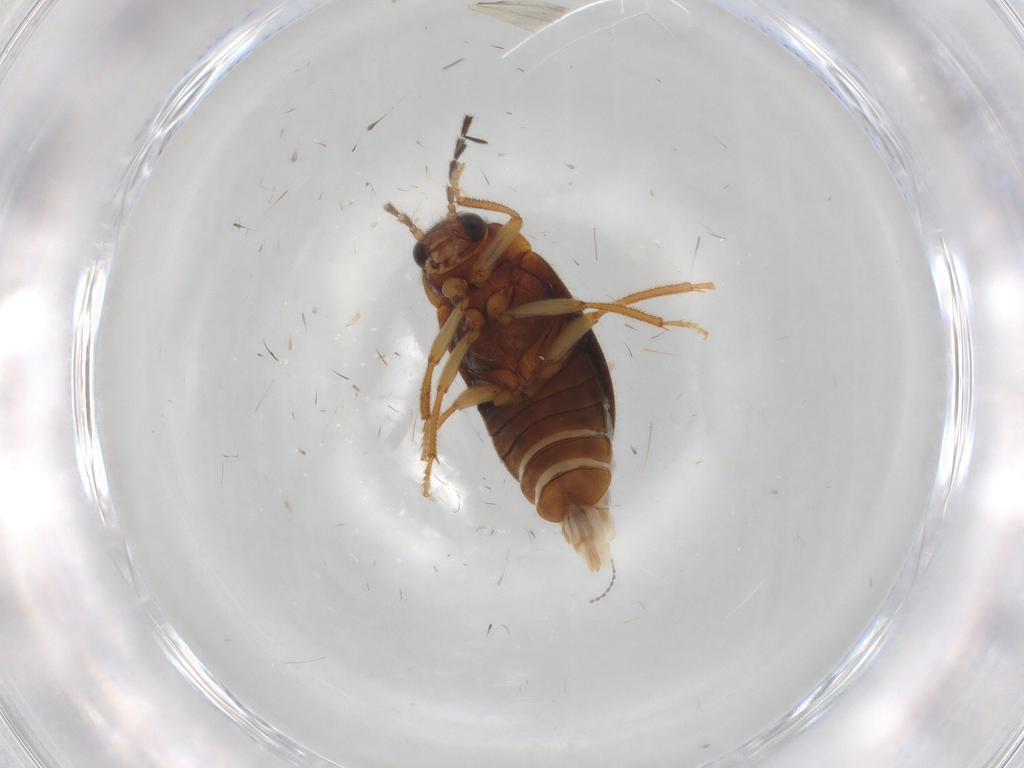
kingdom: Animalia
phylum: Arthropoda
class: Insecta
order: Coleoptera
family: Ptilodactylidae
